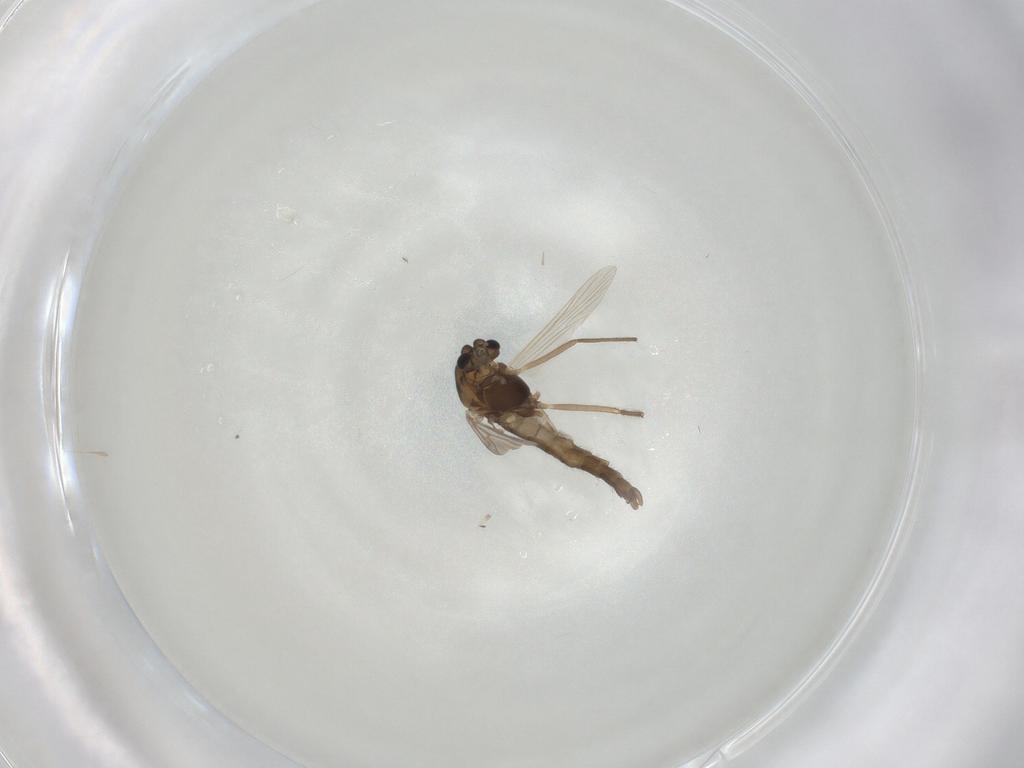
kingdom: Animalia
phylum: Arthropoda
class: Insecta
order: Diptera
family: Chironomidae
